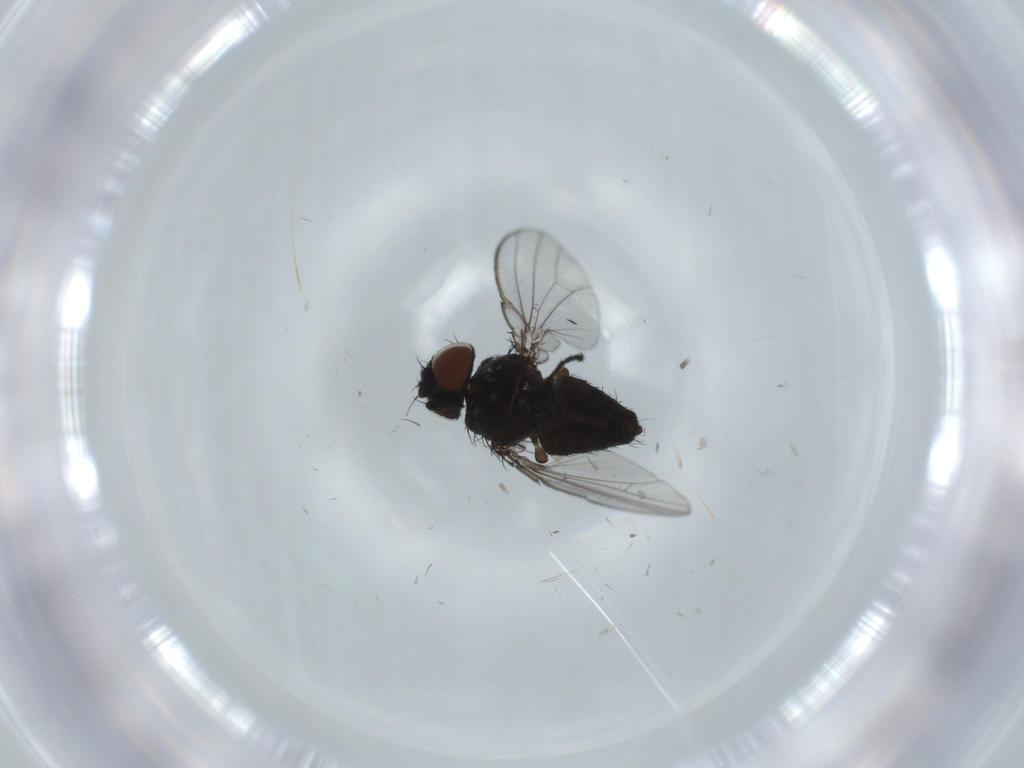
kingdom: Animalia
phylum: Arthropoda
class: Insecta
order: Diptera
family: Milichiidae
